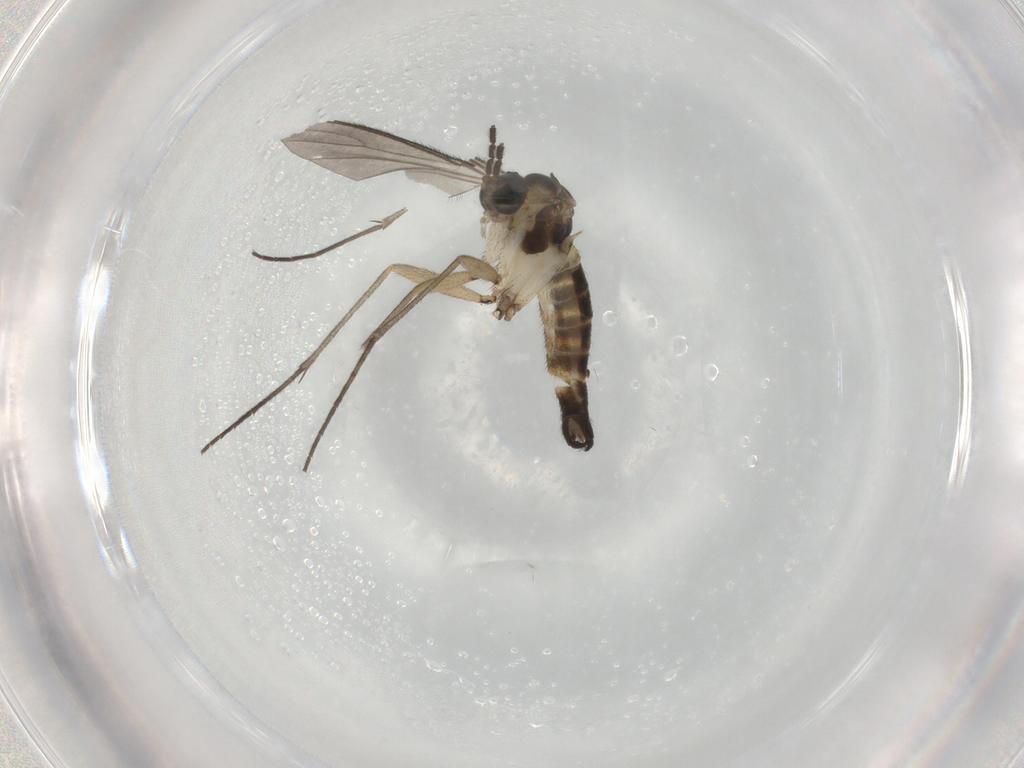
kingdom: Animalia
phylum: Arthropoda
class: Insecta
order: Diptera
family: Sciaridae
